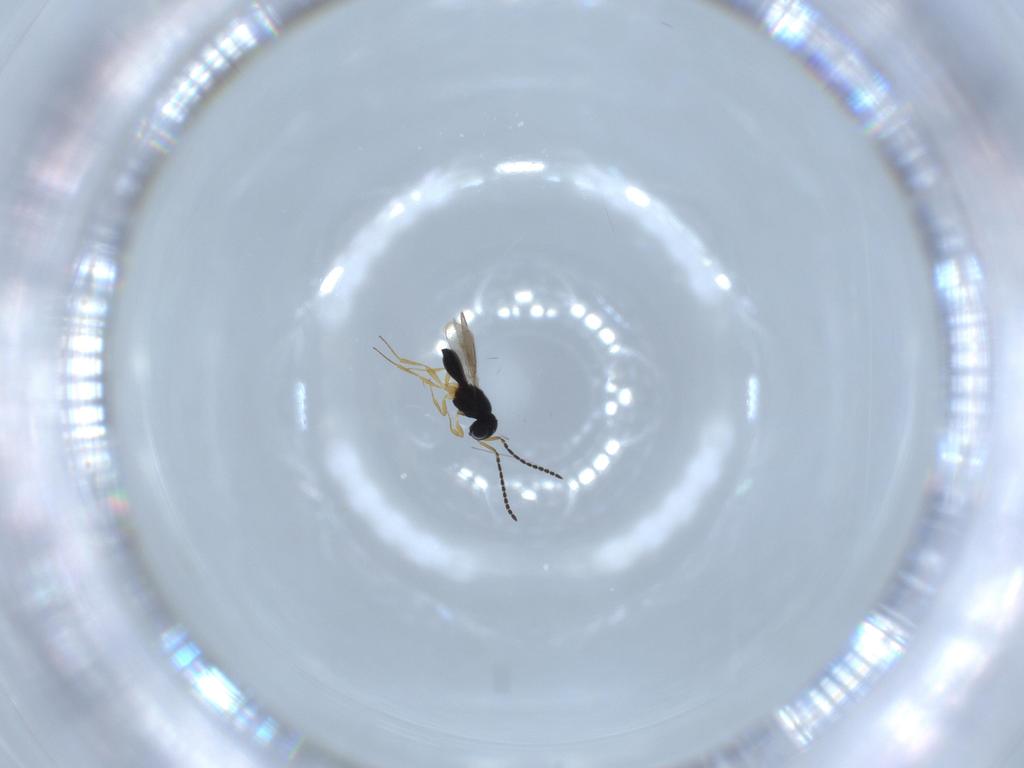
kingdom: Animalia
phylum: Arthropoda
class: Insecta
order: Hymenoptera
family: Scelionidae
